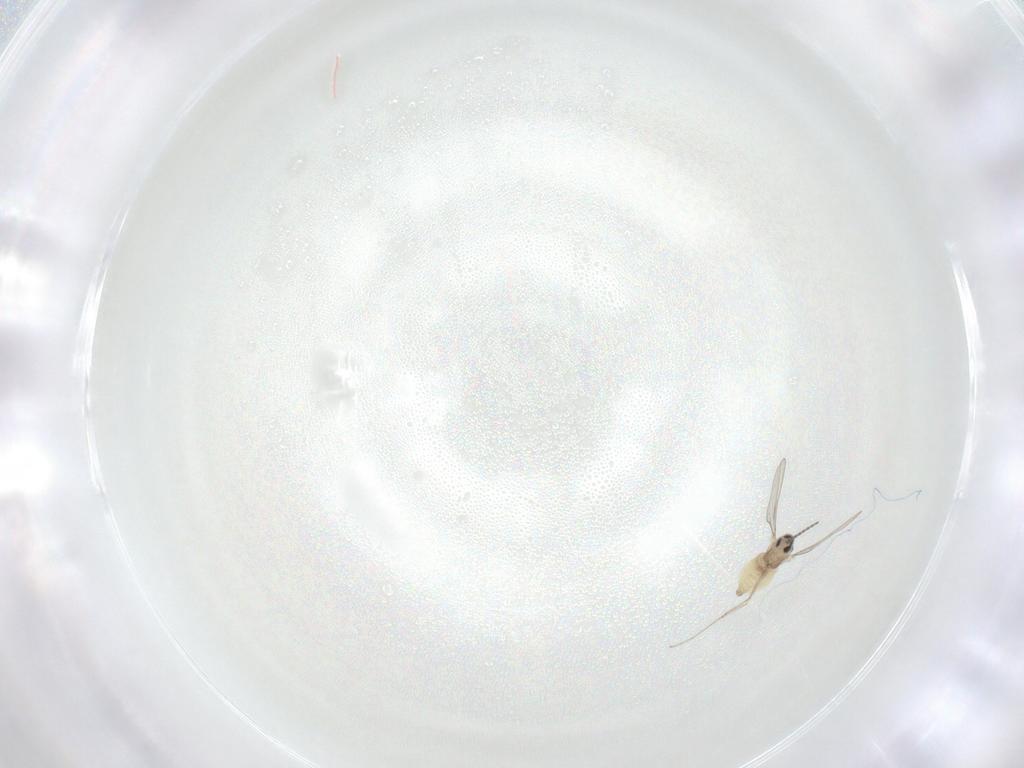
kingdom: Animalia
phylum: Arthropoda
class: Insecta
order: Diptera
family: Cecidomyiidae
